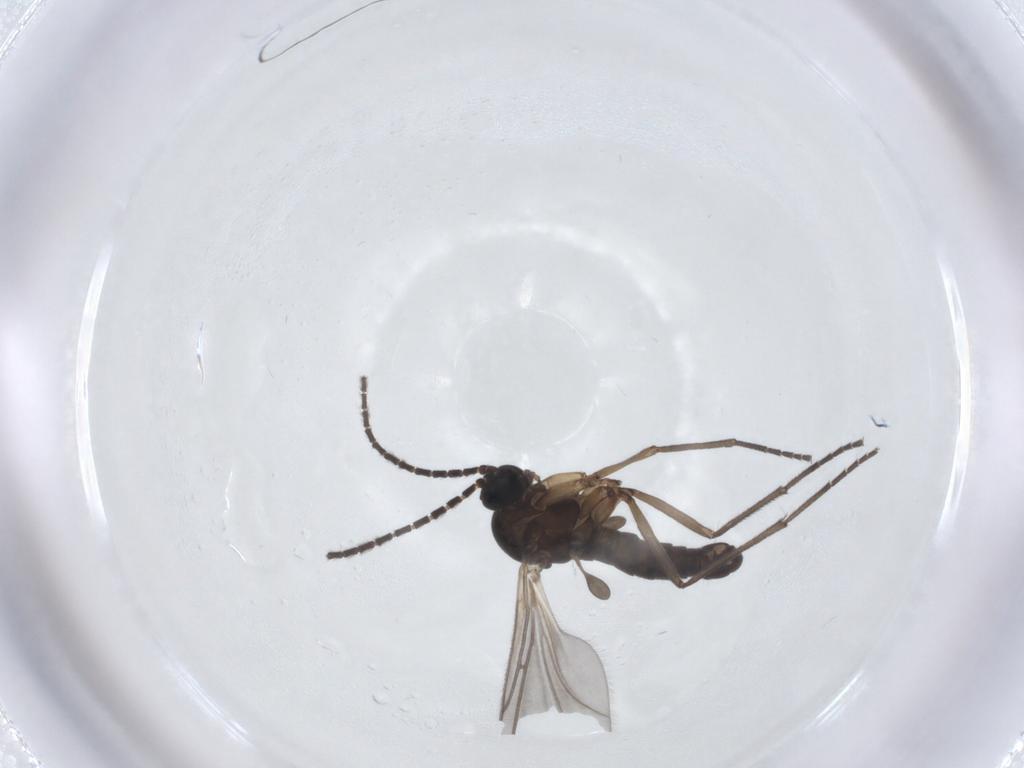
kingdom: Animalia
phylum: Arthropoda
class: Insecta
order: Diptera
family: Sciaridae
